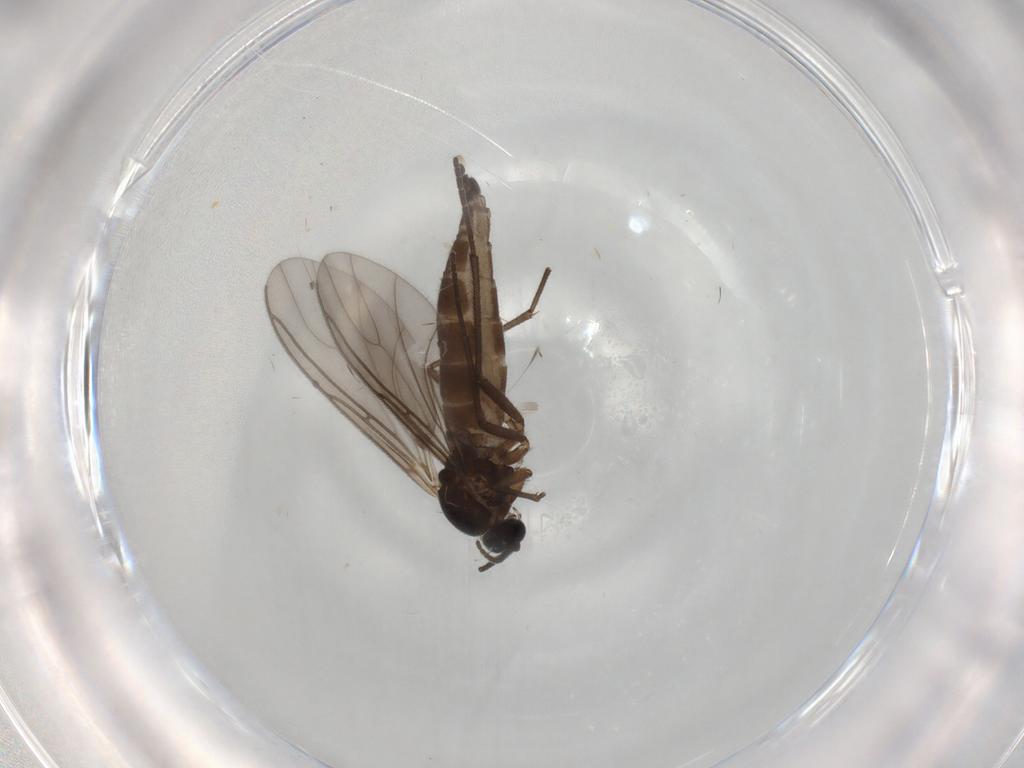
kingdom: Animalia
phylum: Arthropoda
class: Insecta
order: Diptera
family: Sciaridae
